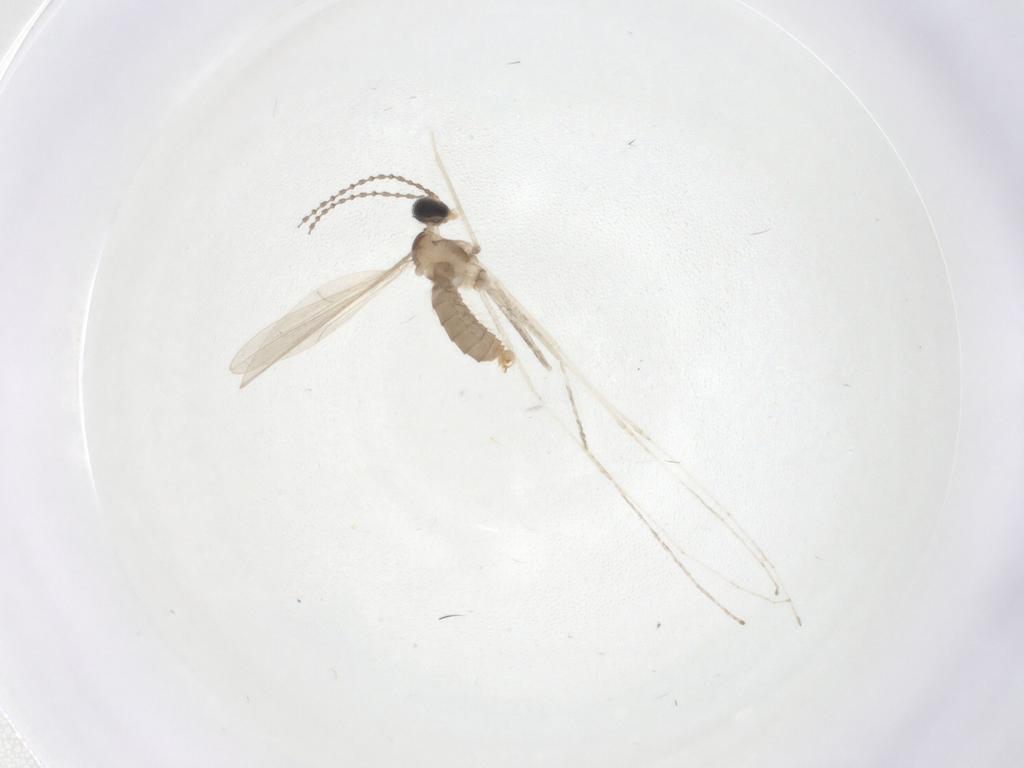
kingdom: Animalia
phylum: Arthropoda
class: Insecta
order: Diptera
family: Cecidomyiidae
